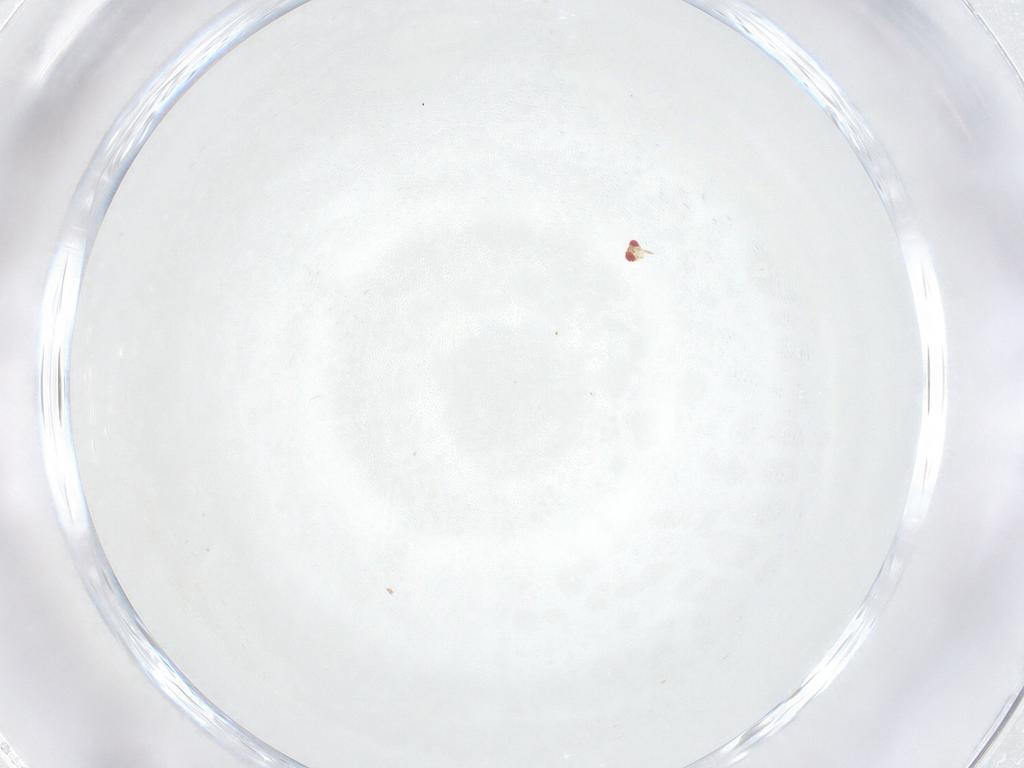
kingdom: Animalia
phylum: Arthropoda
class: Insecta
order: Hymenoptera
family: Trichogrammatidae
